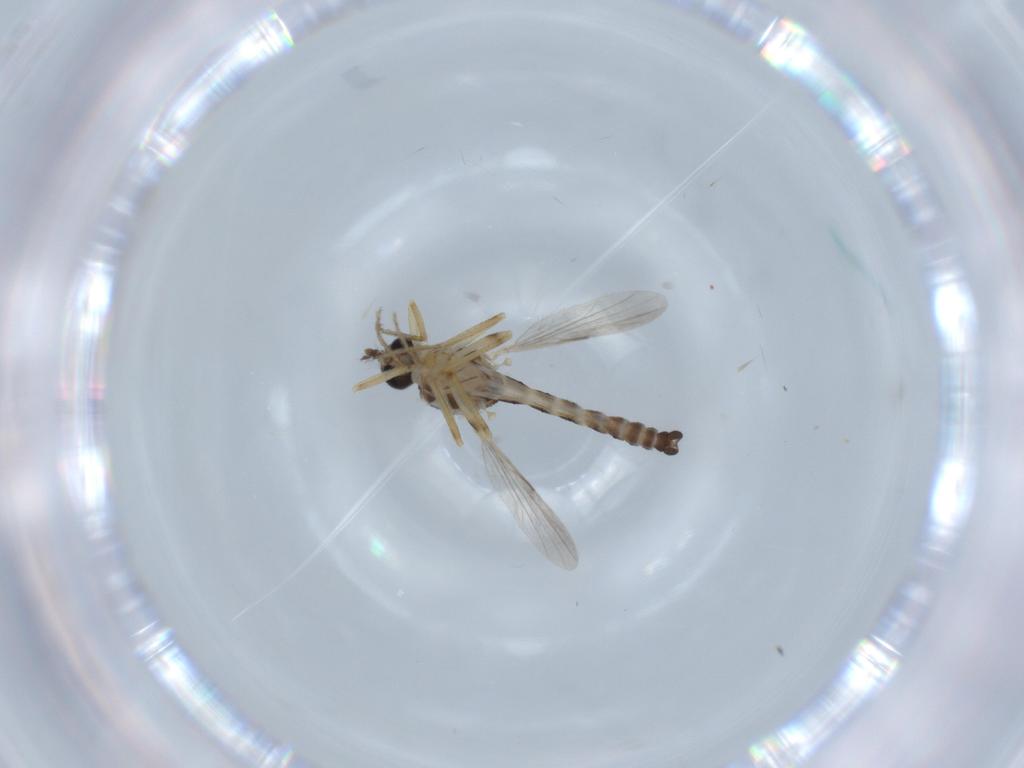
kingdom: Animalia
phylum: Arthropoda
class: Insecta
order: Diptera
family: Ceratopogonidae
